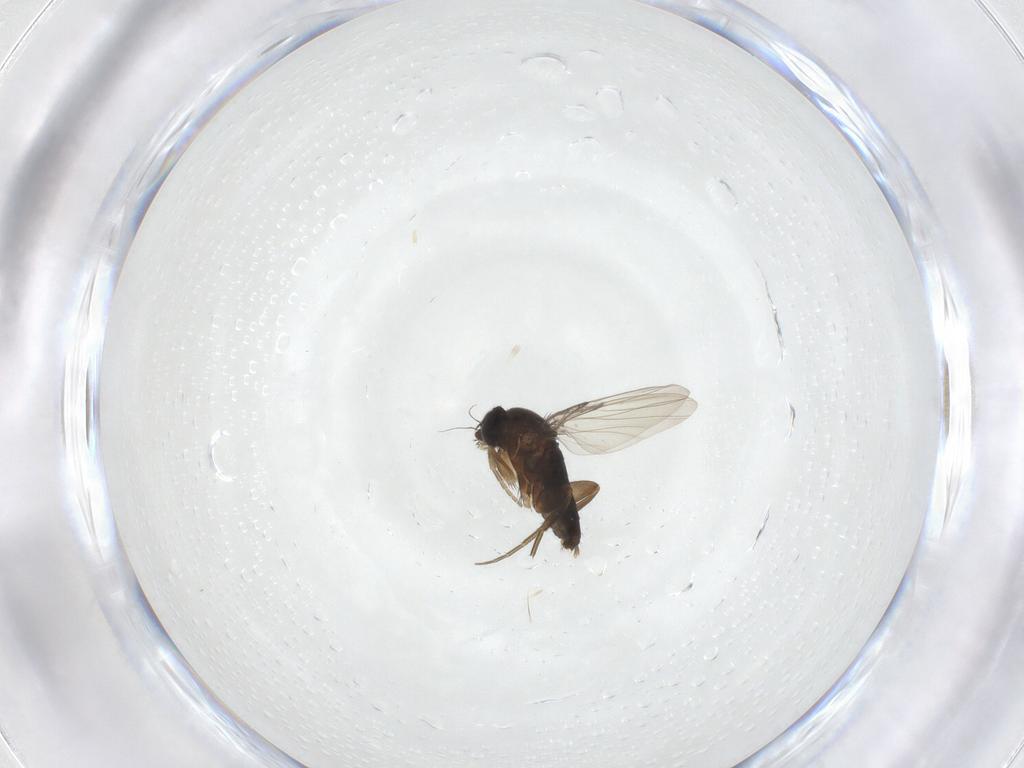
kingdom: Animalia
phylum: Arthropoda
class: Insecta
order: Diptera
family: Phoridae
